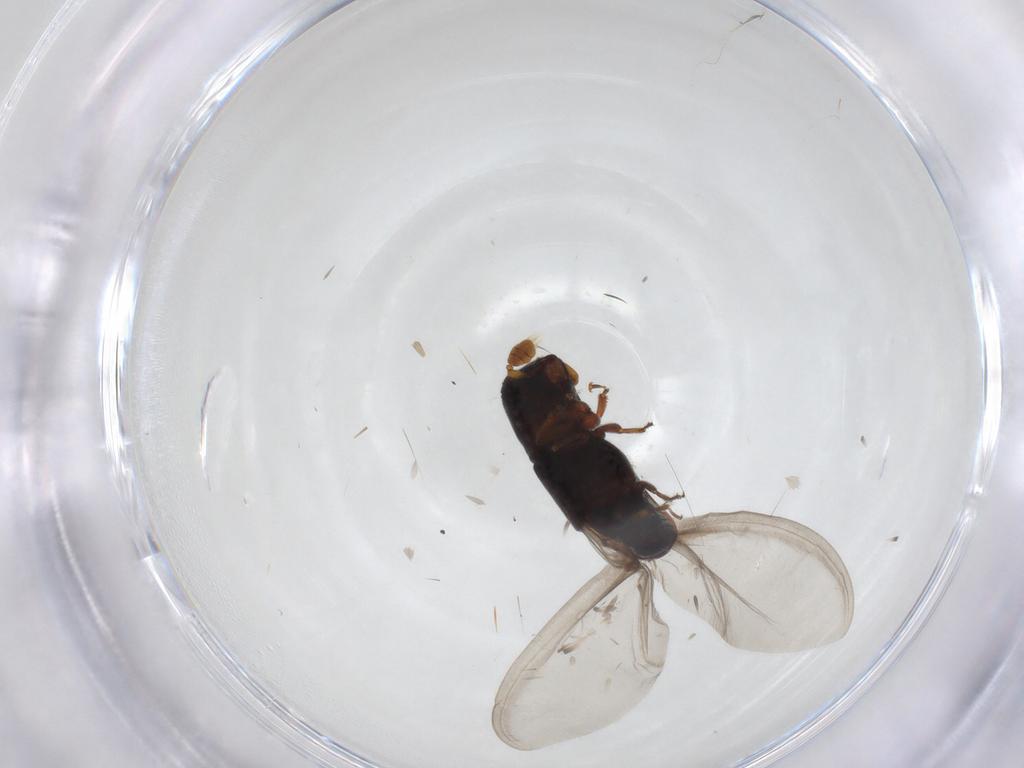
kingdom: Animalia
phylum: Arthropoda
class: Insecta
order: Coleoptera
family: Curculionidae
